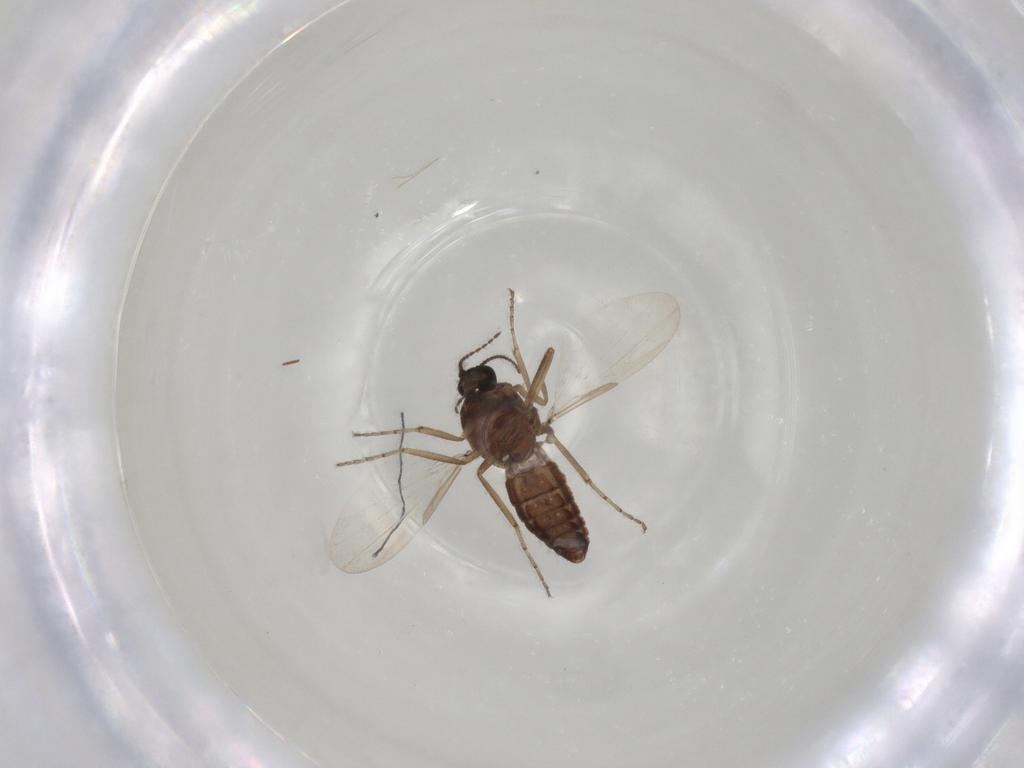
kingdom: Animalia
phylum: Arthropoda
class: Insecta
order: Diptera
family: Ceratopogonidae
